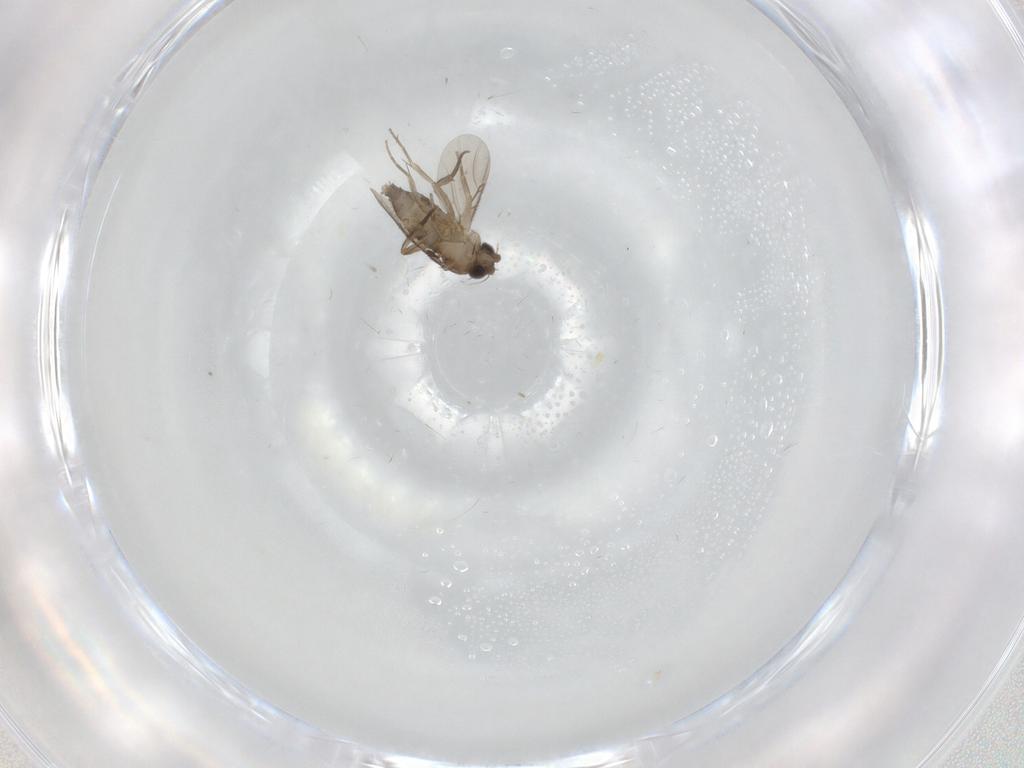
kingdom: Animalia
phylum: Arthropoda
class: Insecta
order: Diptera
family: Phoridae
